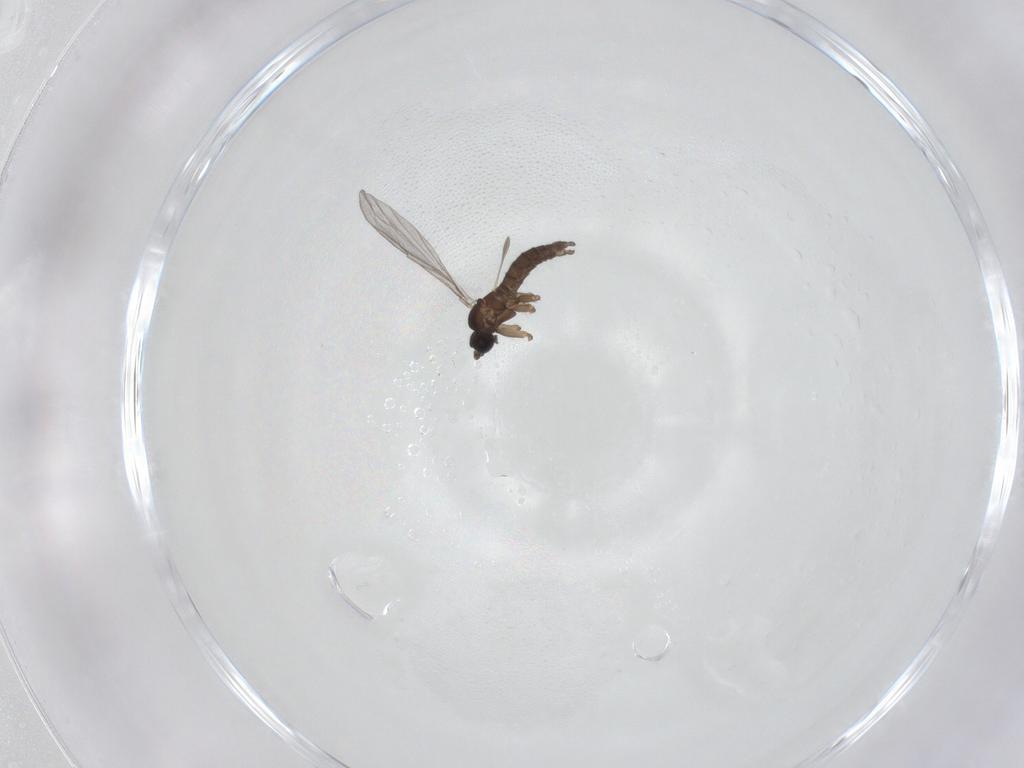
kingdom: Animalia
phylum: Arthropoda
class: Insecta
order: Diptera
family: Sciaridae
